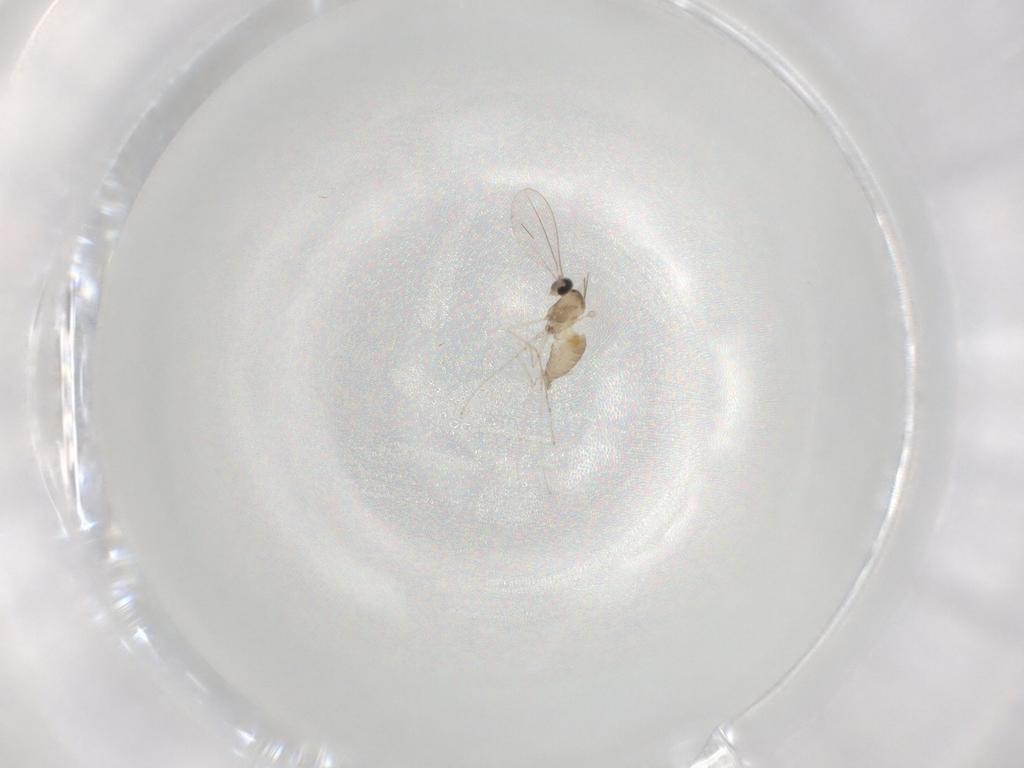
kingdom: Animalia
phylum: Arthropoda
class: Insecta
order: Diptera
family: Cecidomyiidae
